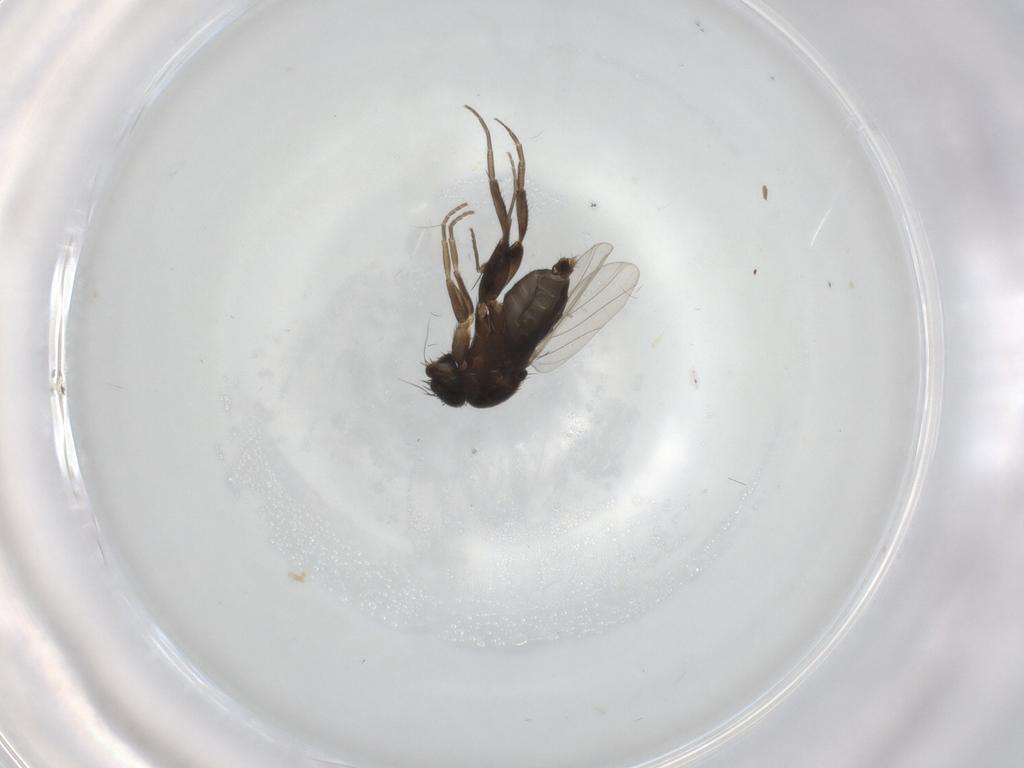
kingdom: Animalia
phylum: Arthropoda
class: Insecta
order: Diptera
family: Phoridae
